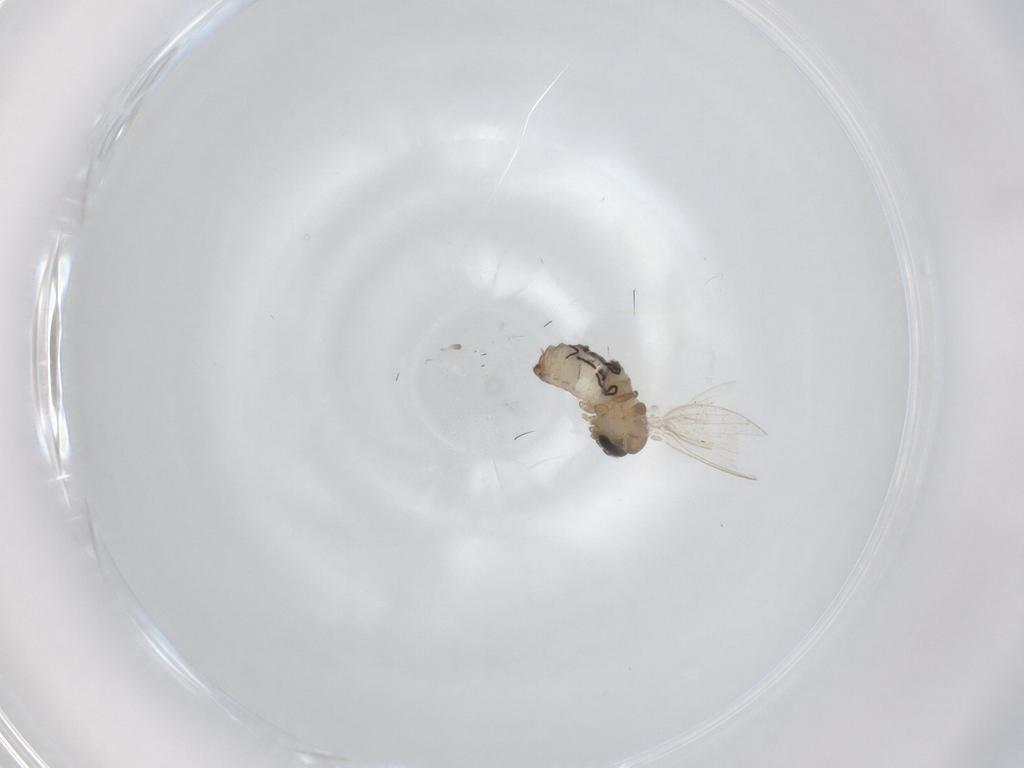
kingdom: Animalia
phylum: Arthropoda
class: Insecta
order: Diptera
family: Psychodidae
